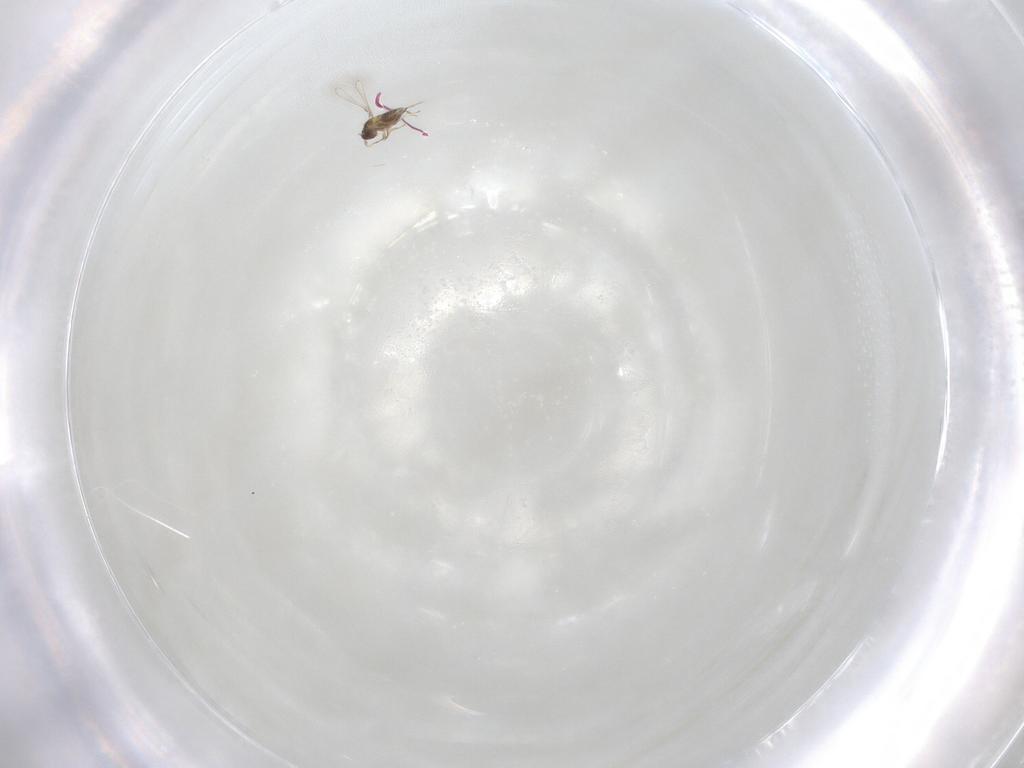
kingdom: Animalia
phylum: Arthropoda
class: Insecta
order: Hymenoptera
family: Mymaridae
